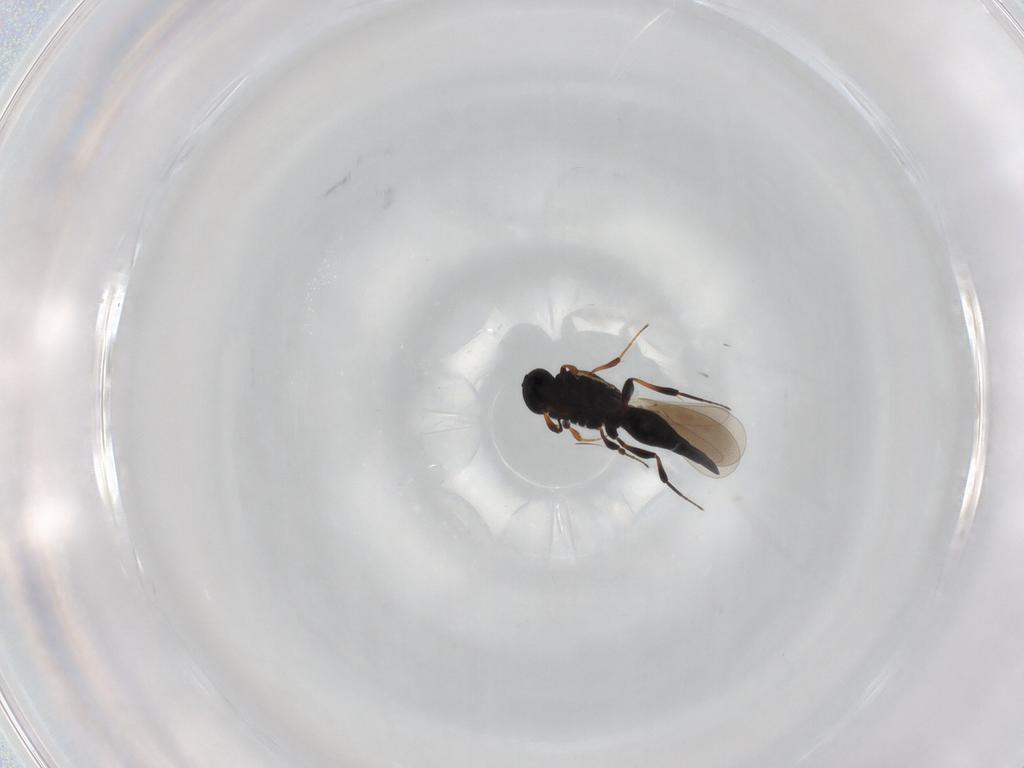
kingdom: Animalia
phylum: Arthropoda
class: Insecta
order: Hymenoptera
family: Platygastridae
